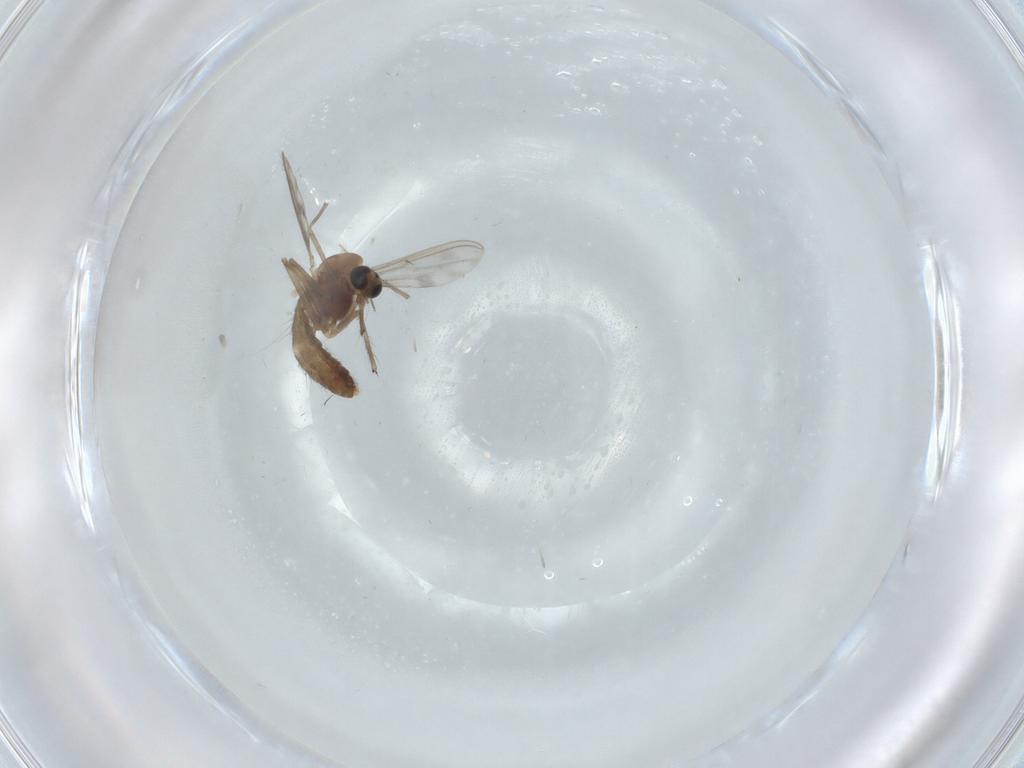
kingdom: Animalia
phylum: Arthropoda
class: Insecta
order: Diptera
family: Chironomidae
